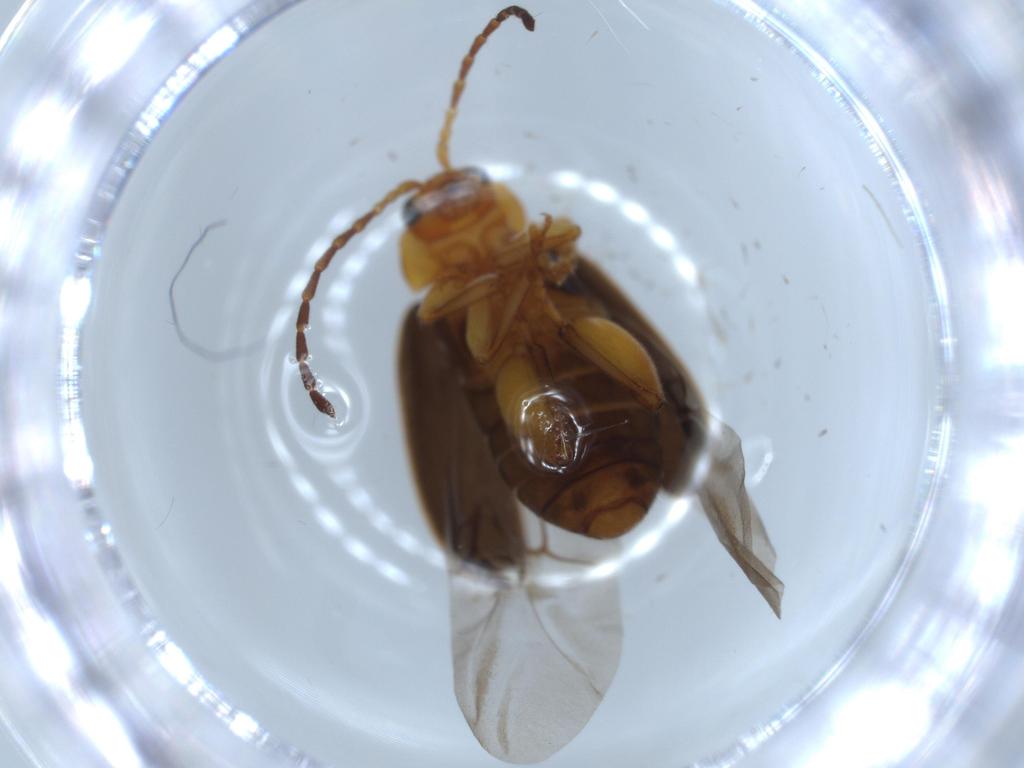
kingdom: Animalia
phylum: Arthropoda
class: Insecta
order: Coleoptera
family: Chrysomelidae
